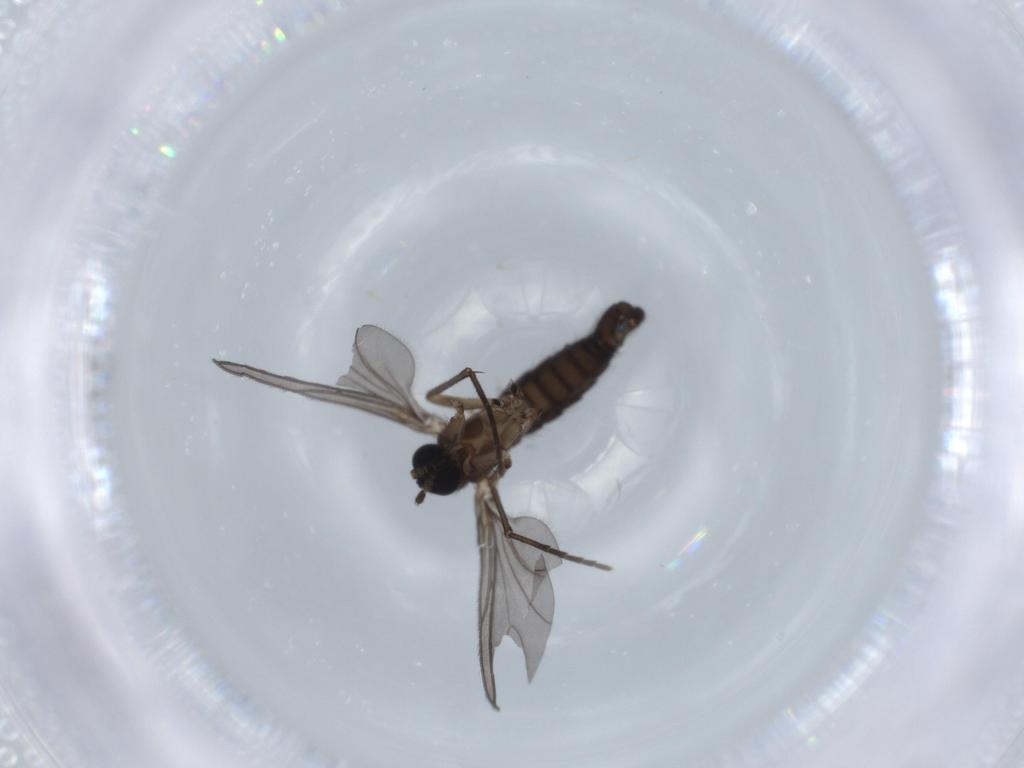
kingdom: Animalia
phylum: Arthropoda
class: Insecta
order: Diptera
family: Sciaridae
